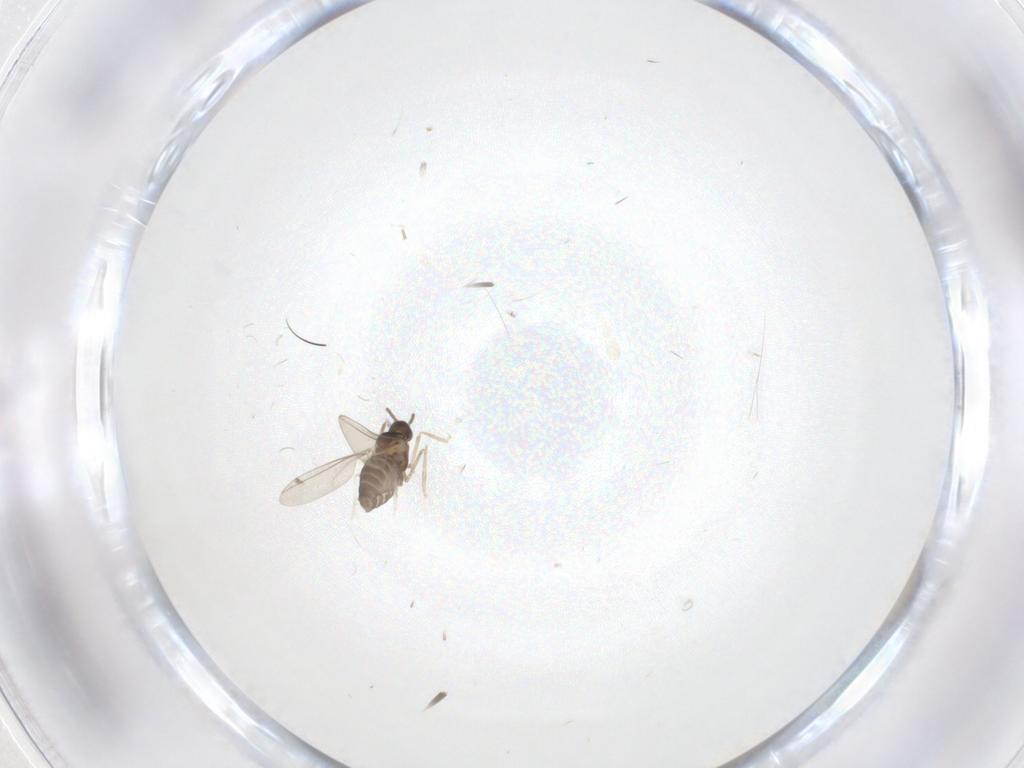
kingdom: Animalia
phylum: Arthropoda
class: Insecta
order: Diptera
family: Cecidomyiidae
